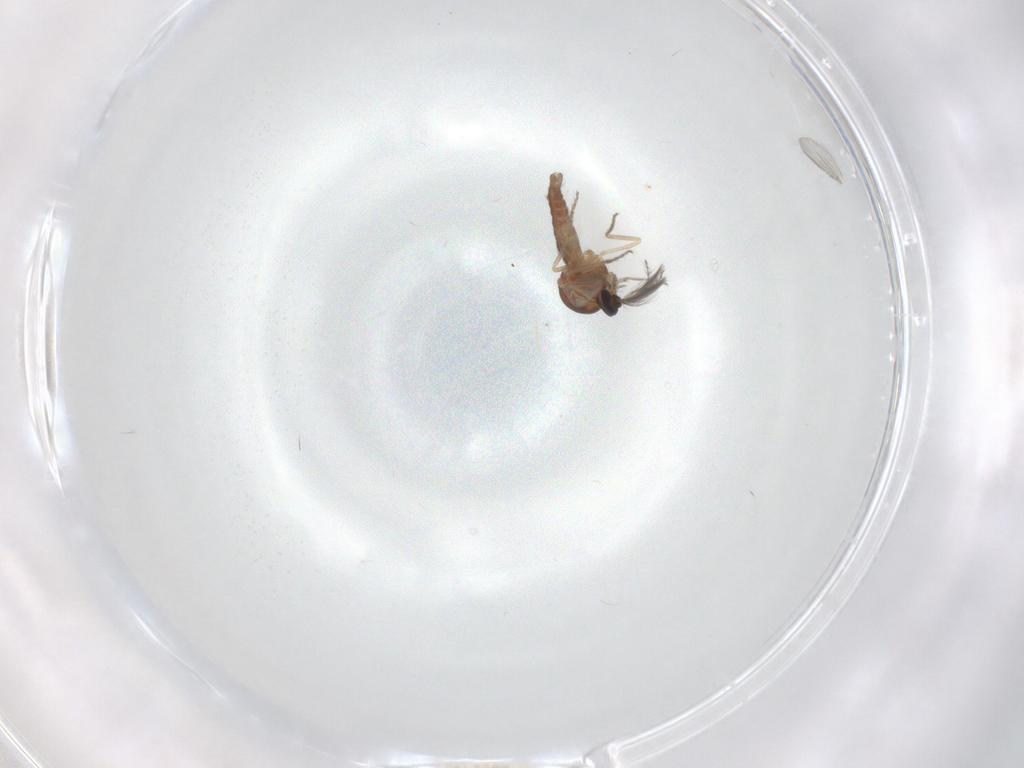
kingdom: Animalia
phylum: Arthropoda
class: Insecta
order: Diptera
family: Ceratopogonidae
